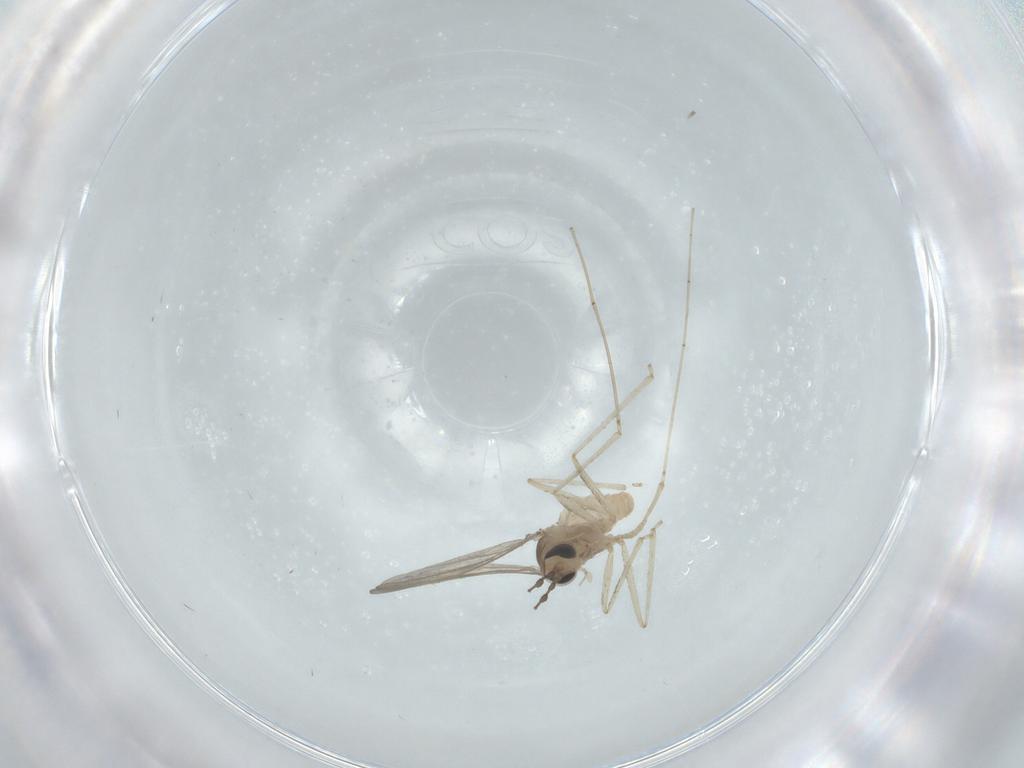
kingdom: Animalia
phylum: Arthropoda
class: Insecta
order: Diptera
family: Cecidomyiidae
